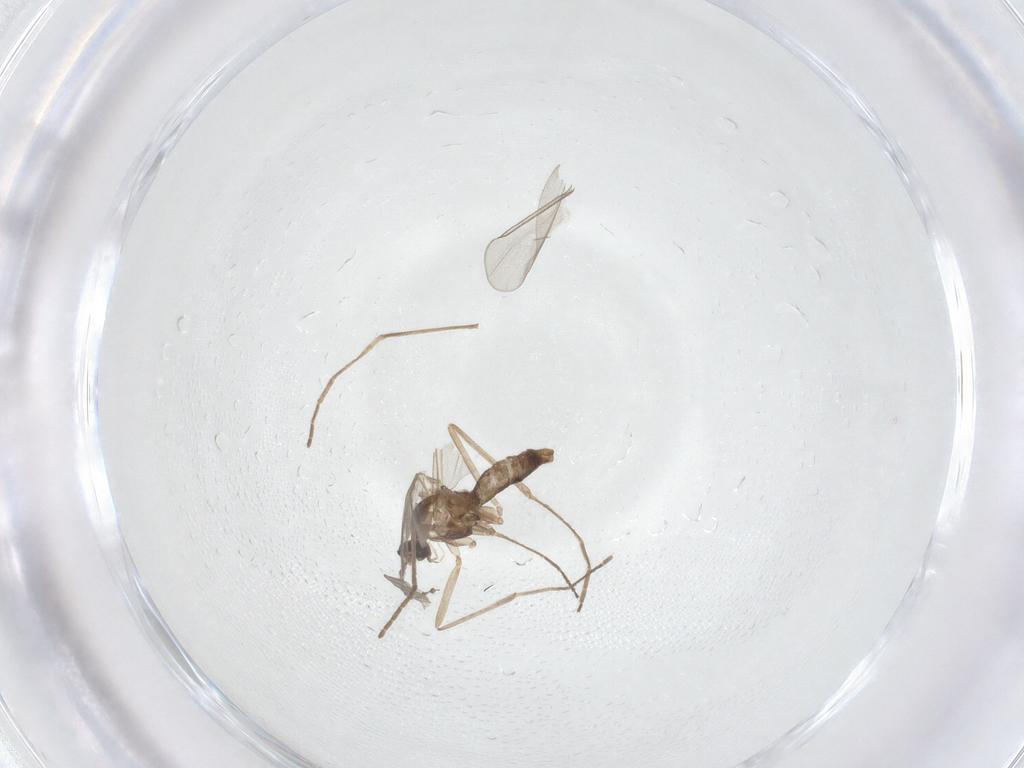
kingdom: Animalia
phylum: Arthropoda
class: Insecta
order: Diptera
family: Cecidomyiidae
